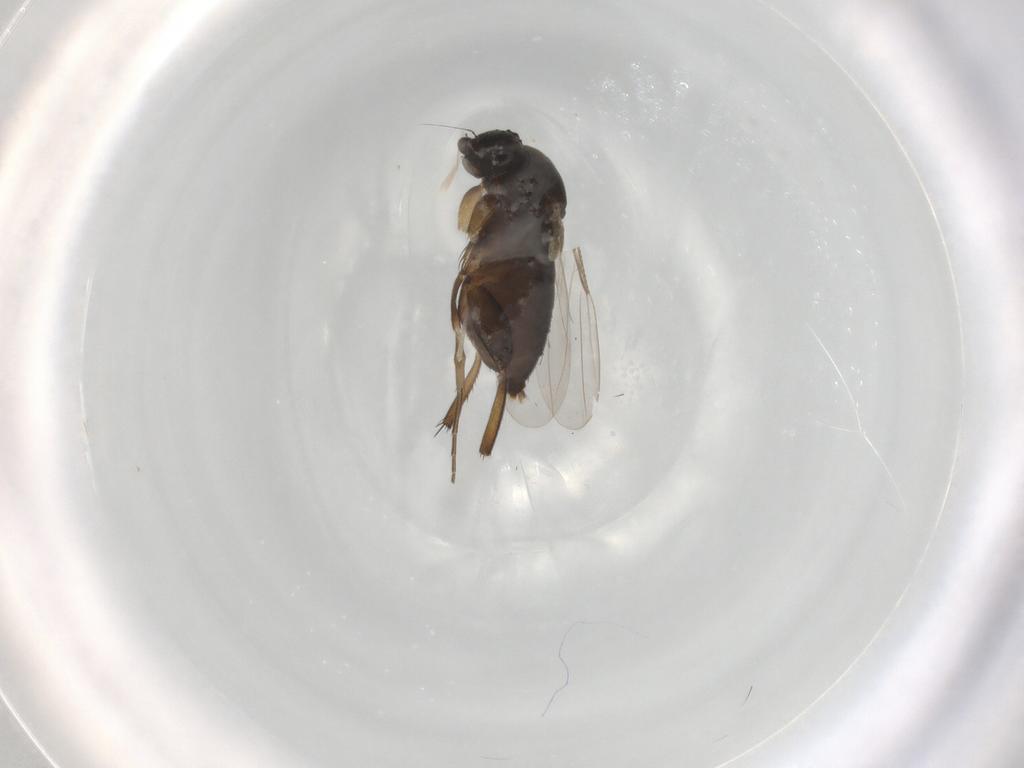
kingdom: Animalia
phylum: Arthropoda
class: Insecta
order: Diptera
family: Phoridae
